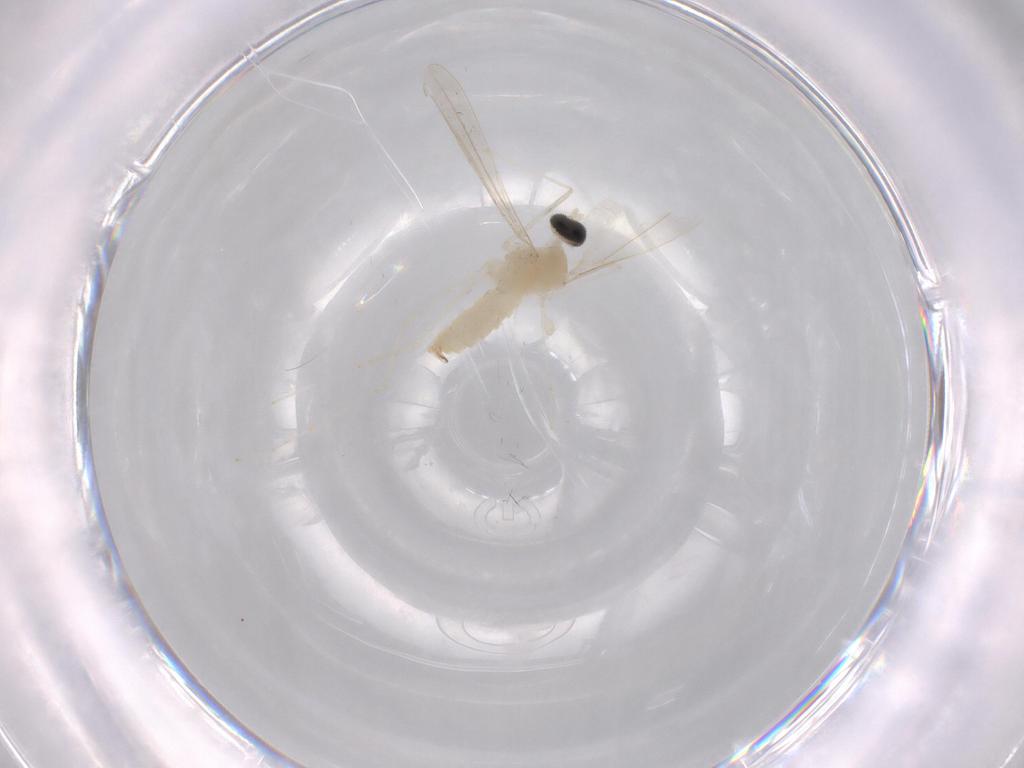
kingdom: Animalia
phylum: Arthropoda
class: Insecta
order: Diptera
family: Cecidomyiidae
